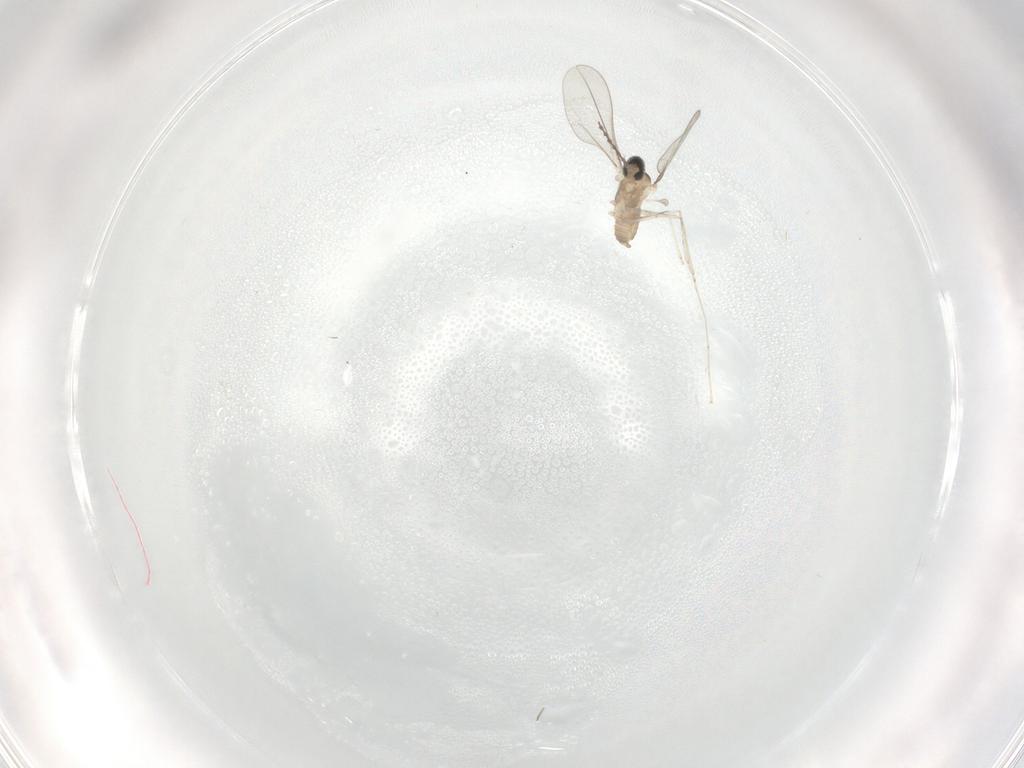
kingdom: Animalia
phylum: Arthropoda
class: Insecta
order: Diptera
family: Cecidomyiidae
